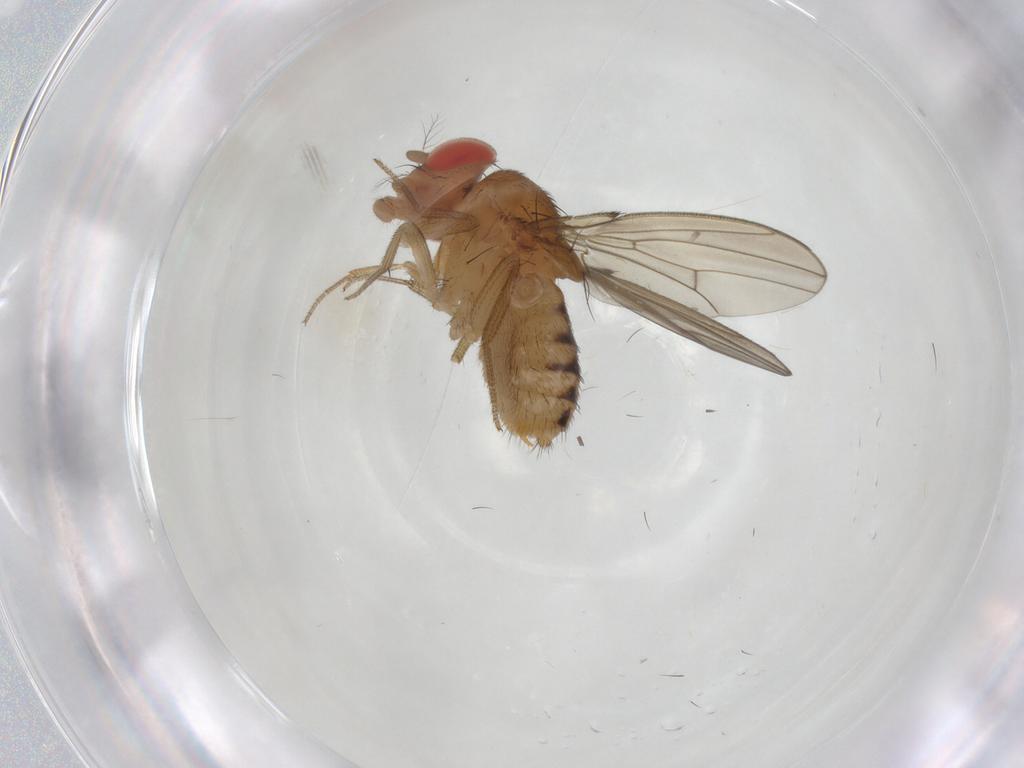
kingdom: Animalia
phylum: Arthropoda
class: Insecta
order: Diptera
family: Drosophilidae
